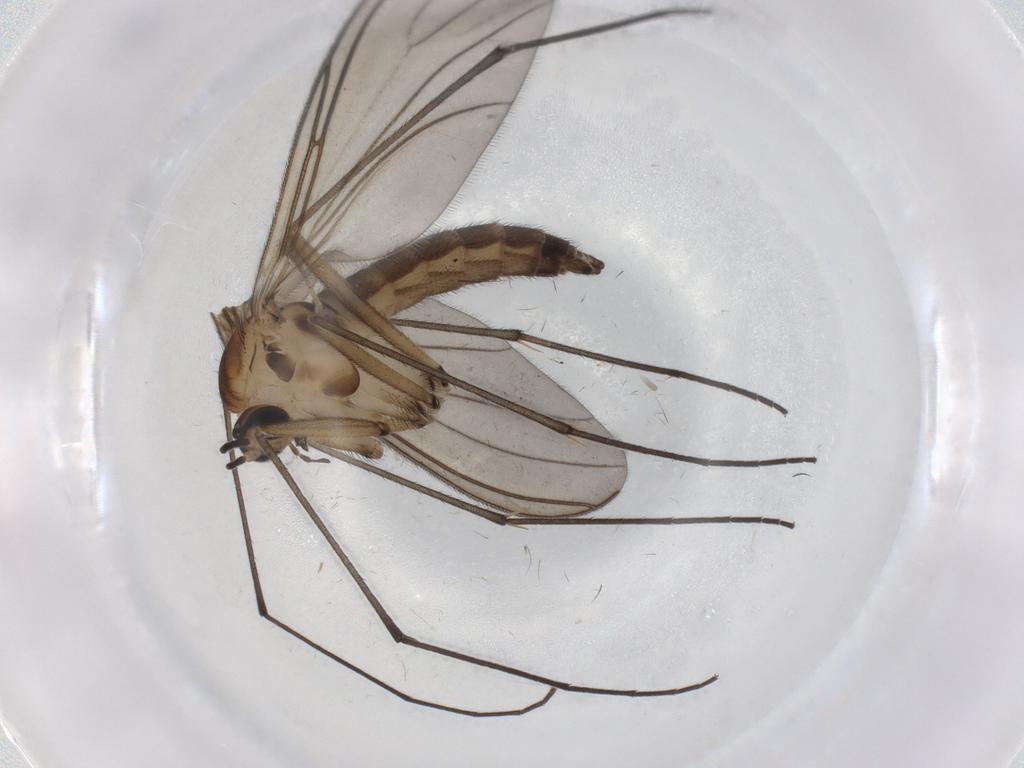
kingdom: Animalia
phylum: Arthropoda
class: Insecta
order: Diptera
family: Sciaridae
